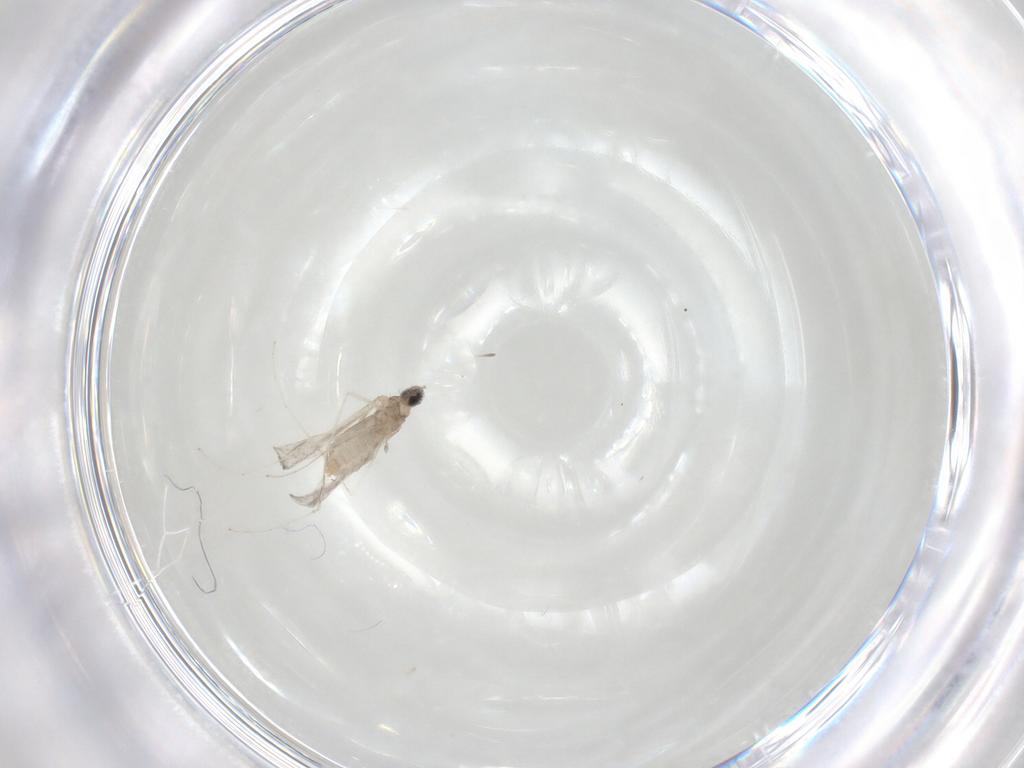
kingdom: Animalia
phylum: Arthropoda
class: Insecta
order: Diptera
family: Cecidomyiidae
